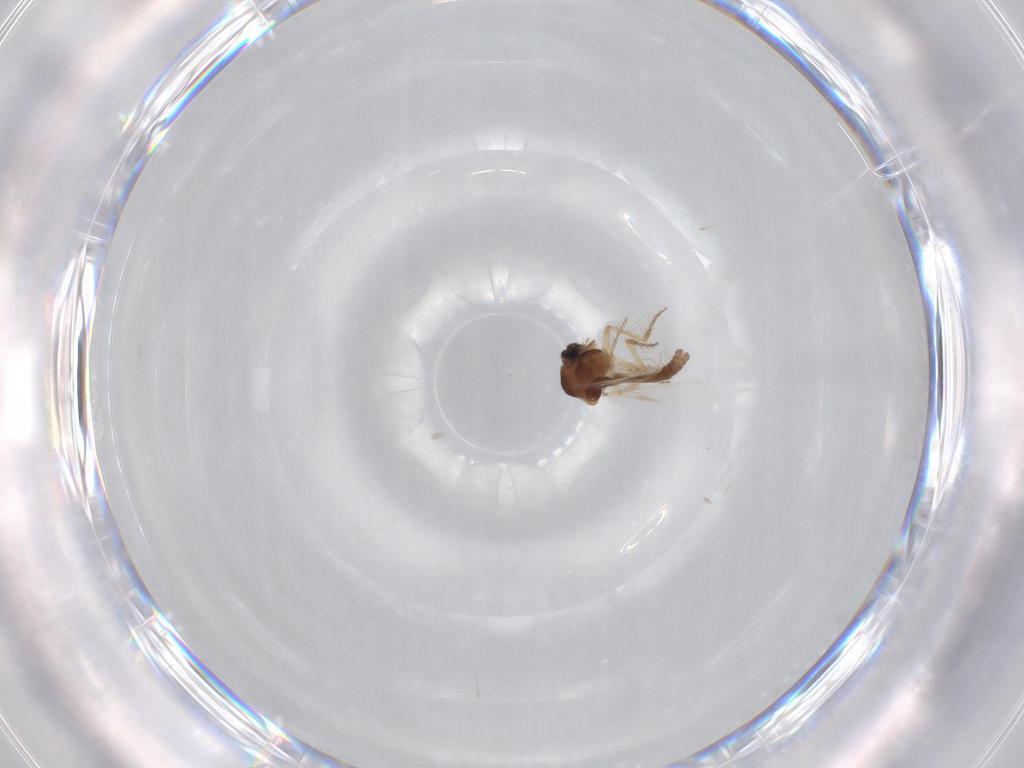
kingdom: Animalia
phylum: Arthropoda
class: Insecta
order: Diptera
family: Ceratopogonidae
